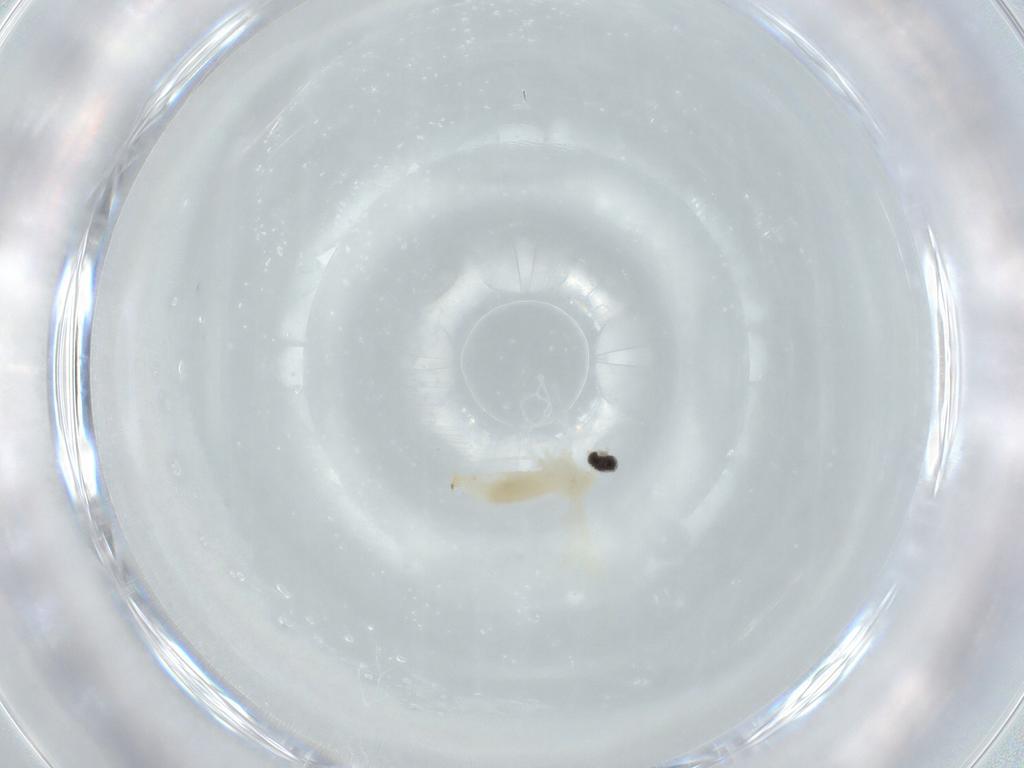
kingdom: Animalia
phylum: Arthropoda
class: Insecta
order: Diptera
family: Cecidomyiidae
